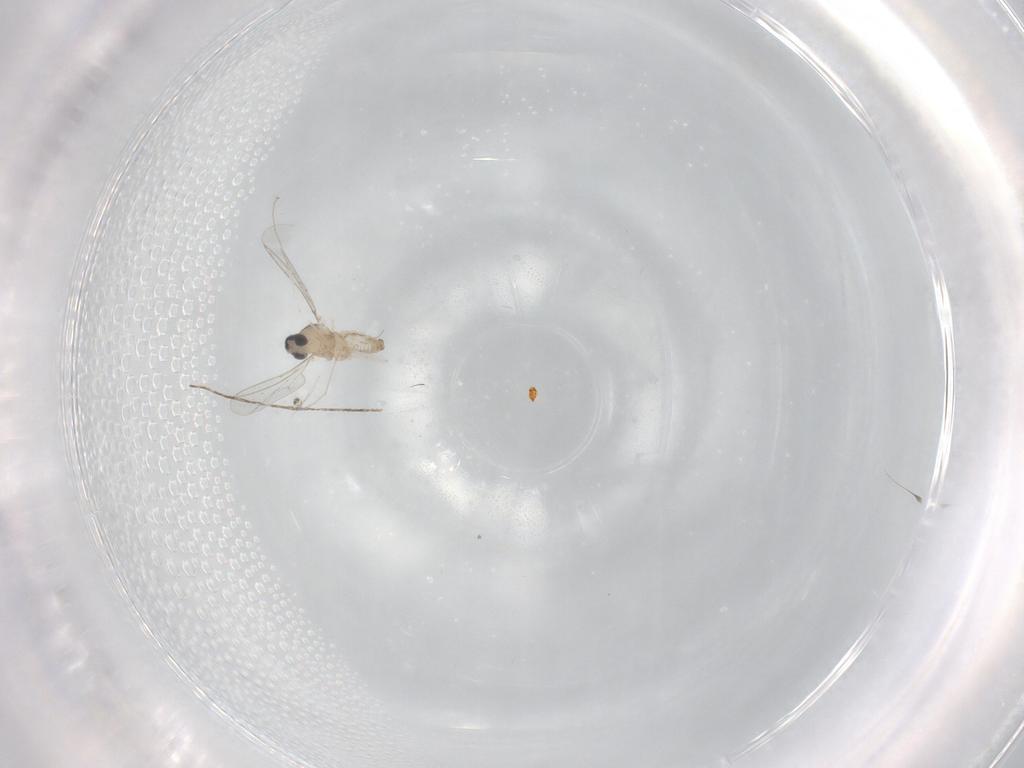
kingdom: Animalia
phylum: Arthropoda
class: Insecta
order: Diptera
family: Cecidomyiidae
